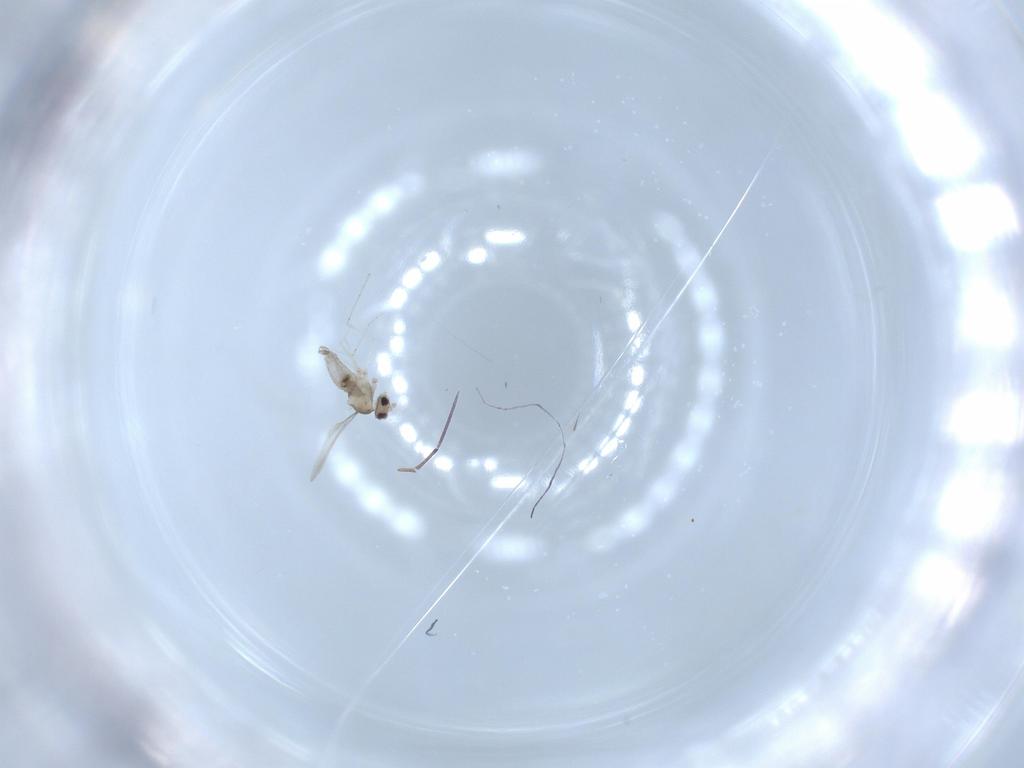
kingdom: Animalia
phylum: Arthropoda
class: Insecta
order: Diptera
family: Cecidomyiidae
